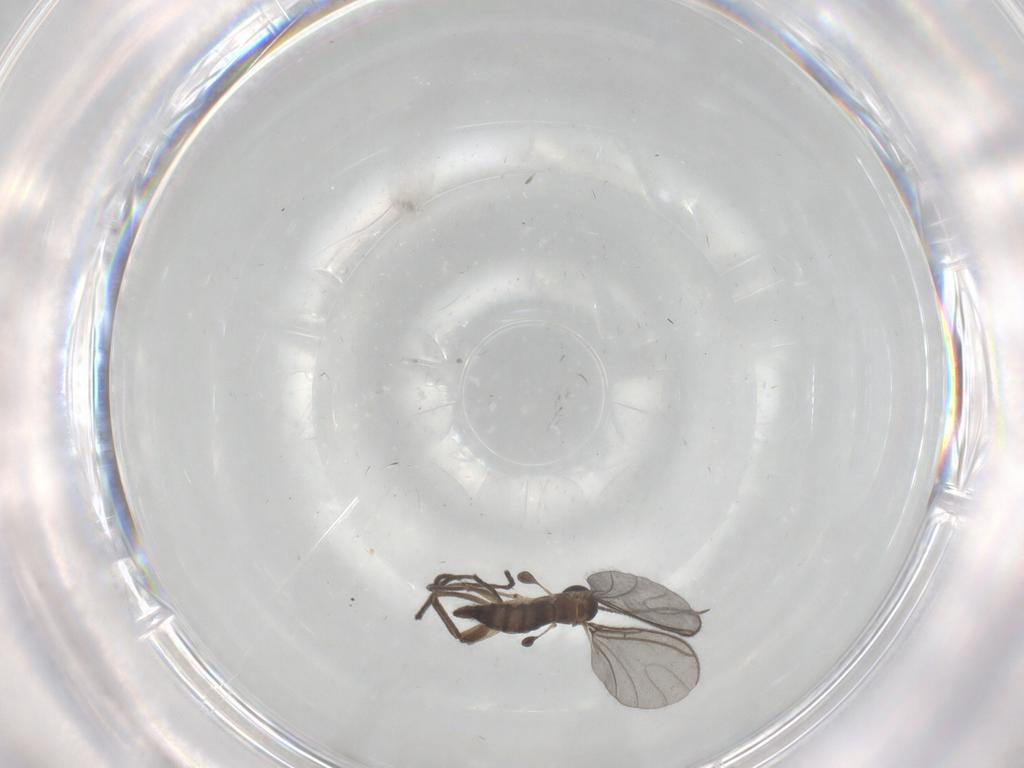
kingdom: Animalia
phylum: Arthropoda
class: Insecta
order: Diptera
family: Sciaridae
